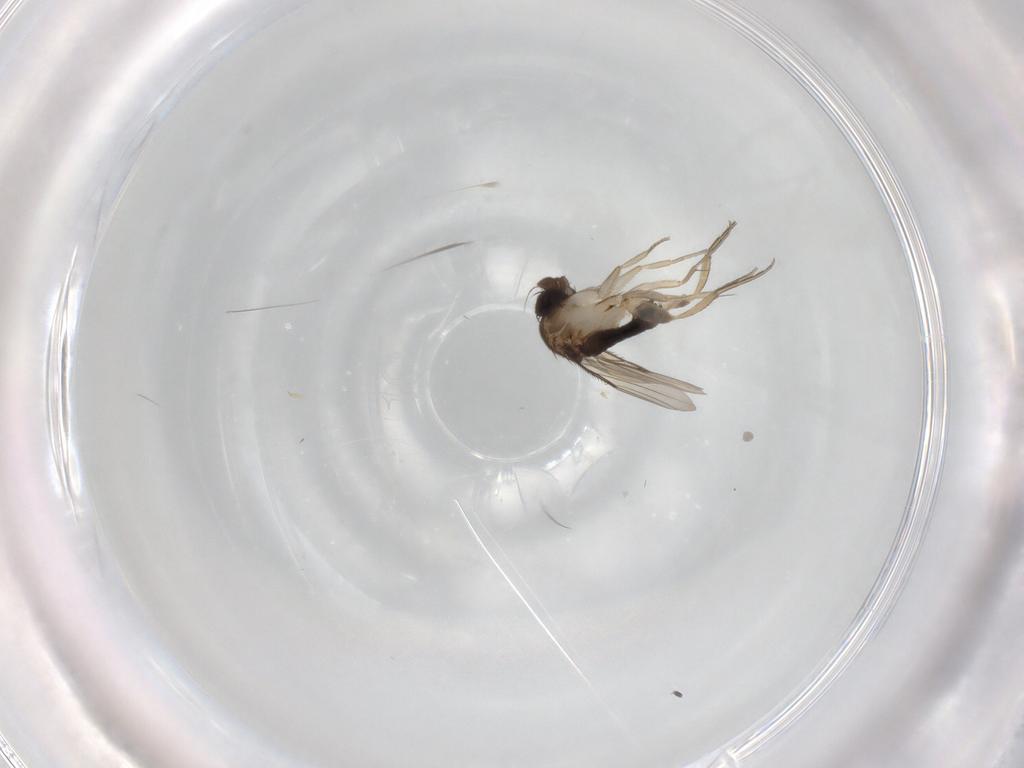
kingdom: Animalia
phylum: Arthropoda
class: Insecta
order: Diptera
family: Phoridae
